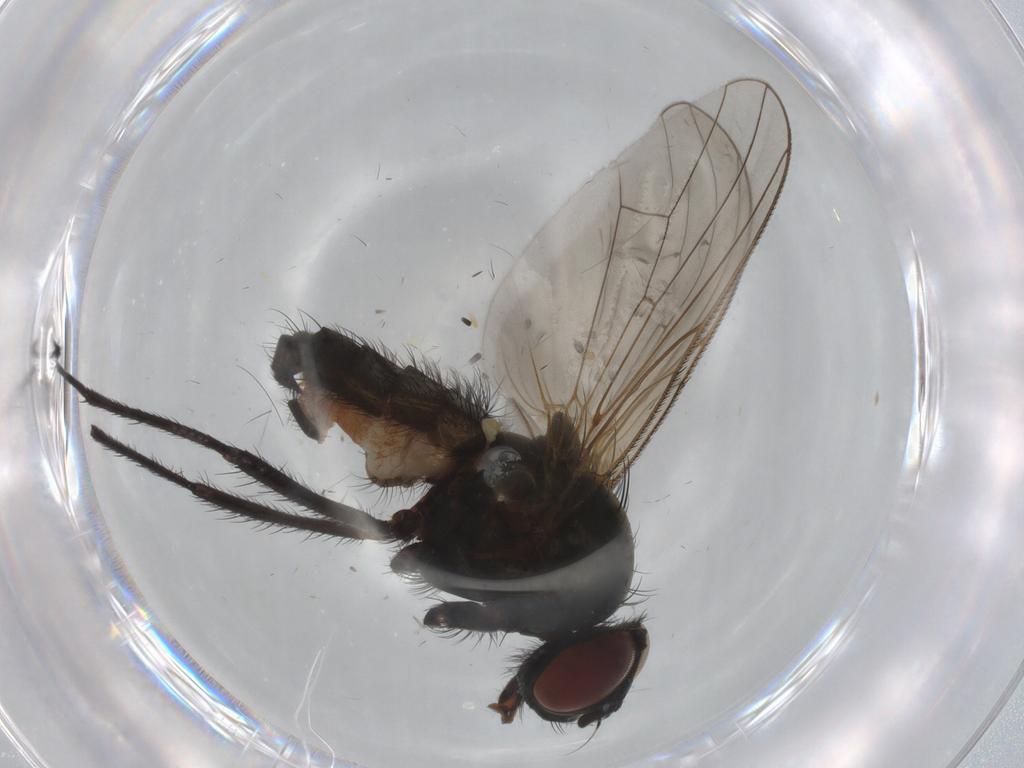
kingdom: Animalia
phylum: Arthropoda
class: Insecta
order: Diptera
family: Anthomyiidae
